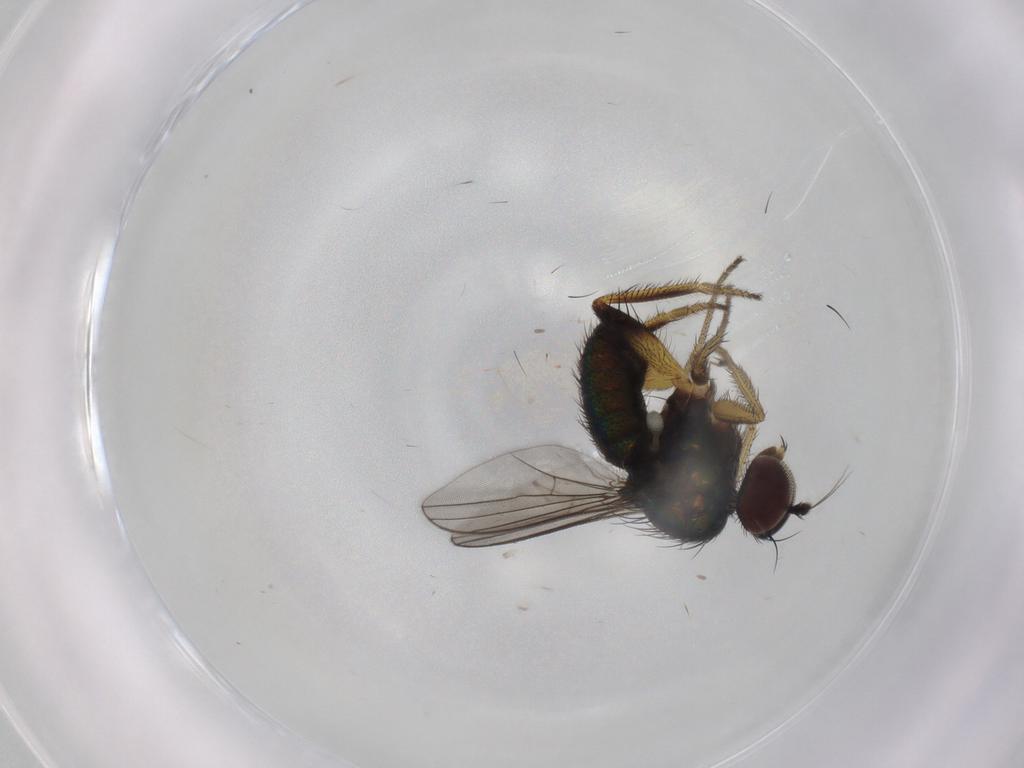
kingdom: Animalia
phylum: Arthropoda
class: Insecta
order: Diptera
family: Dolichopodidae
